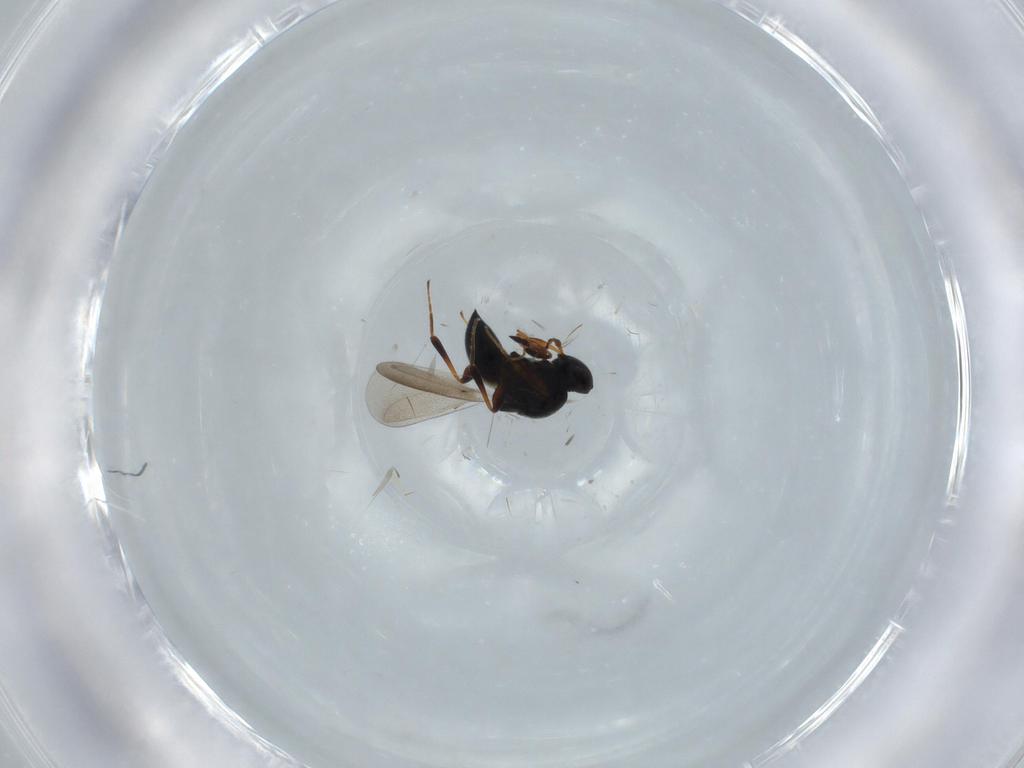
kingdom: Animalia
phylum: Arthropoda
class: Insecta
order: Hymenoptera
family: Platygastridae
